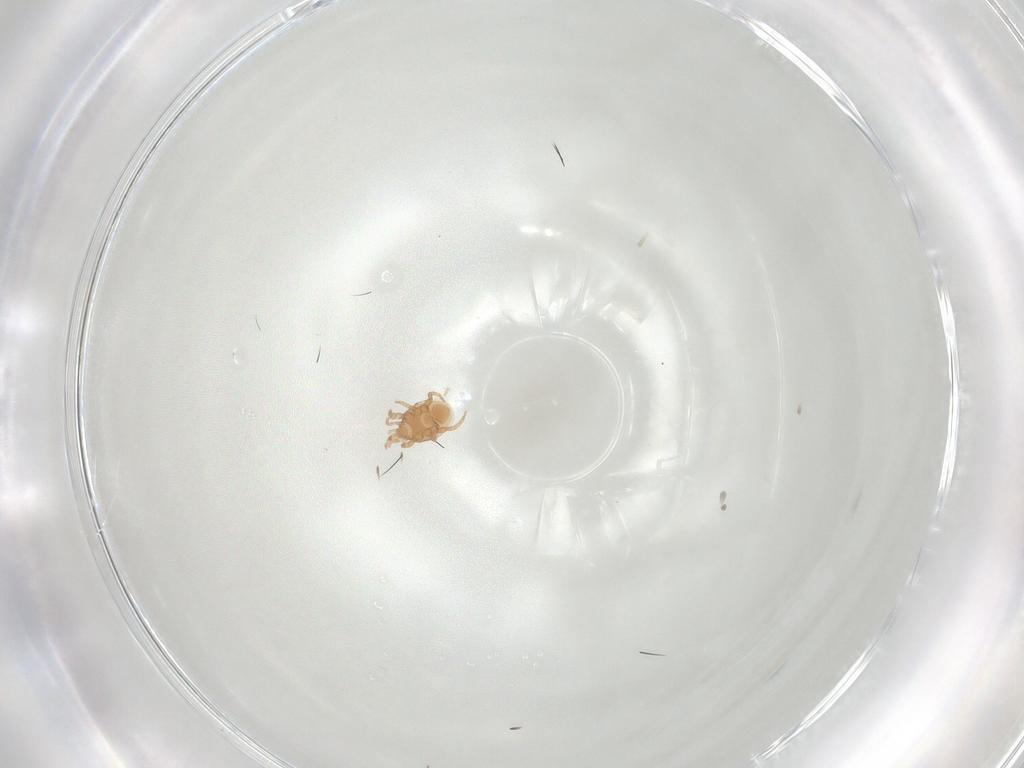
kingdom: Animalia
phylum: Arthropoda
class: Arachnida
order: Mesostigmata
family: Macrochelidae
